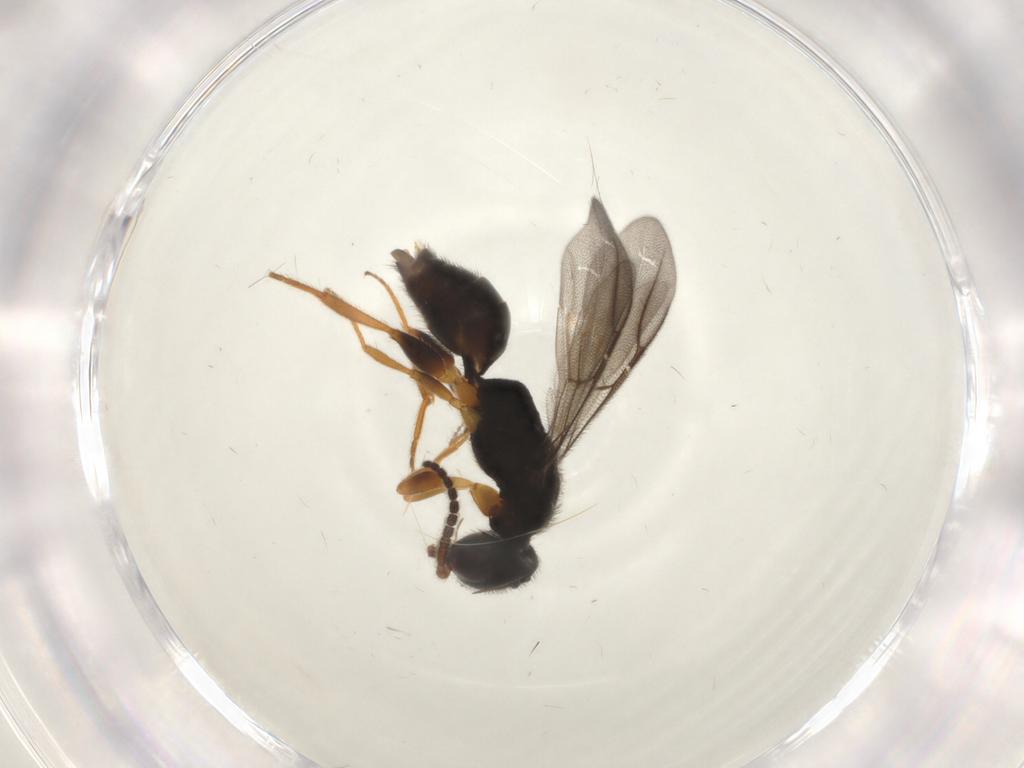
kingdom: Animalia
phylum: Arthropoda
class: Insecta
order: Hymenoptera
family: Bethylidae
